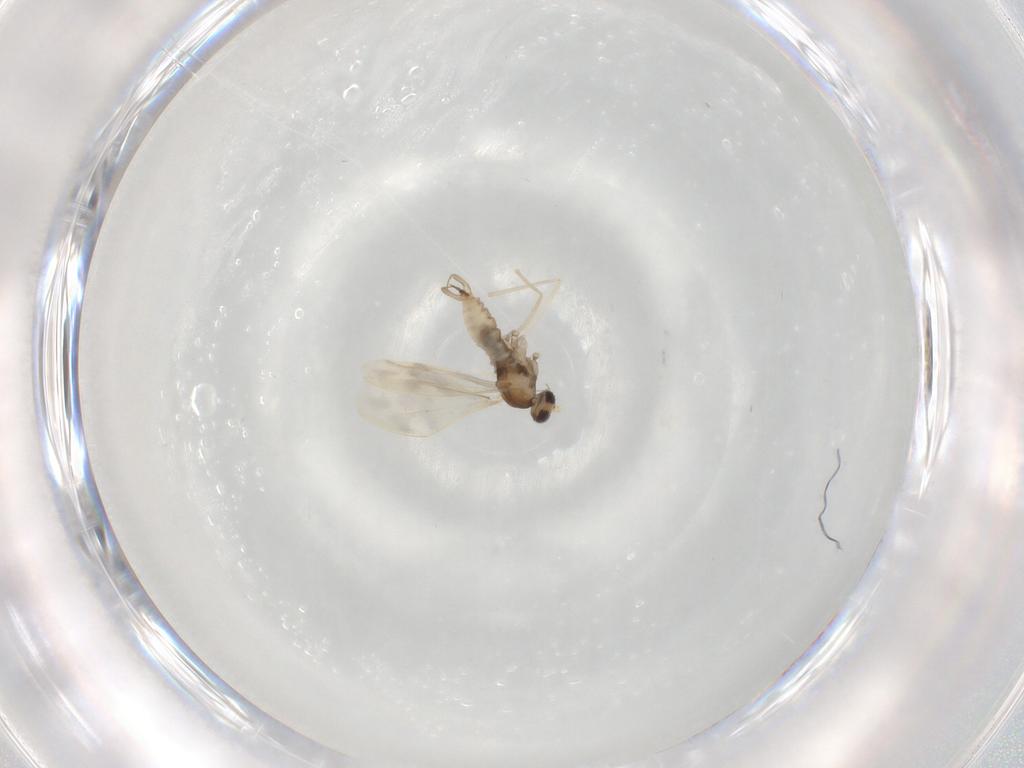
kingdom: Animalia
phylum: Arthropoda
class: Insecta
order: Diptera
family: Cecidomyiidae
